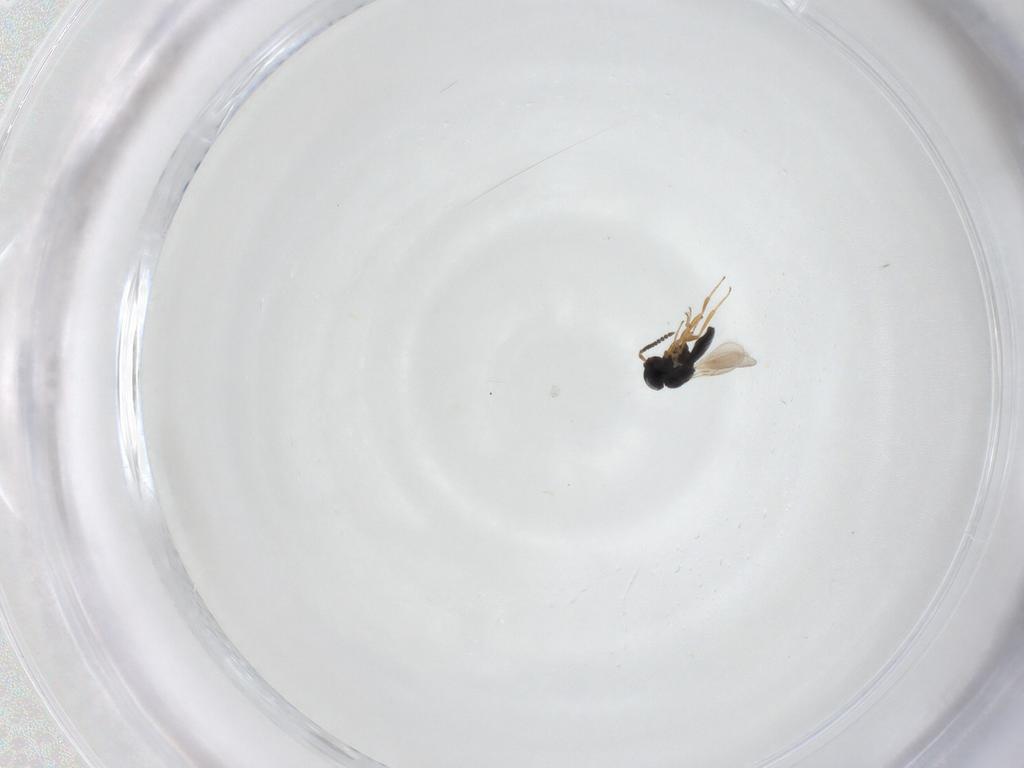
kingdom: Animalia
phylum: Arthropoda
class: Insecta
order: Hymenoptera
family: Scelionidae
